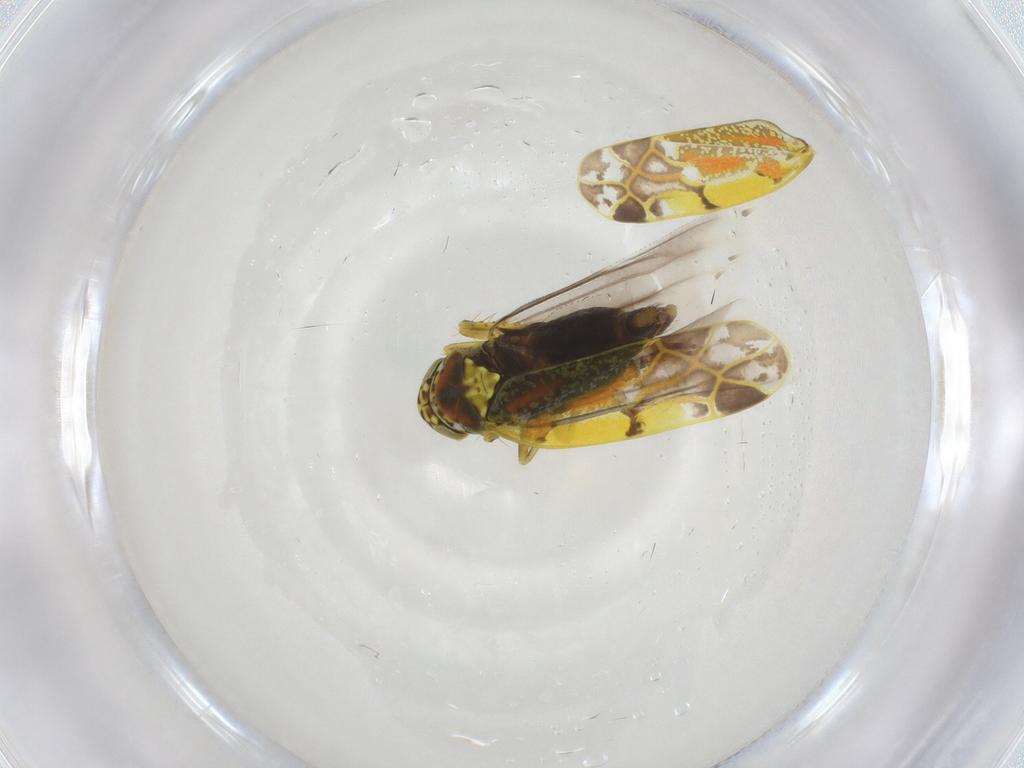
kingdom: Animalia
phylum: Arthropoda
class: Insecta
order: Hemiptera
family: Cicadellidae
